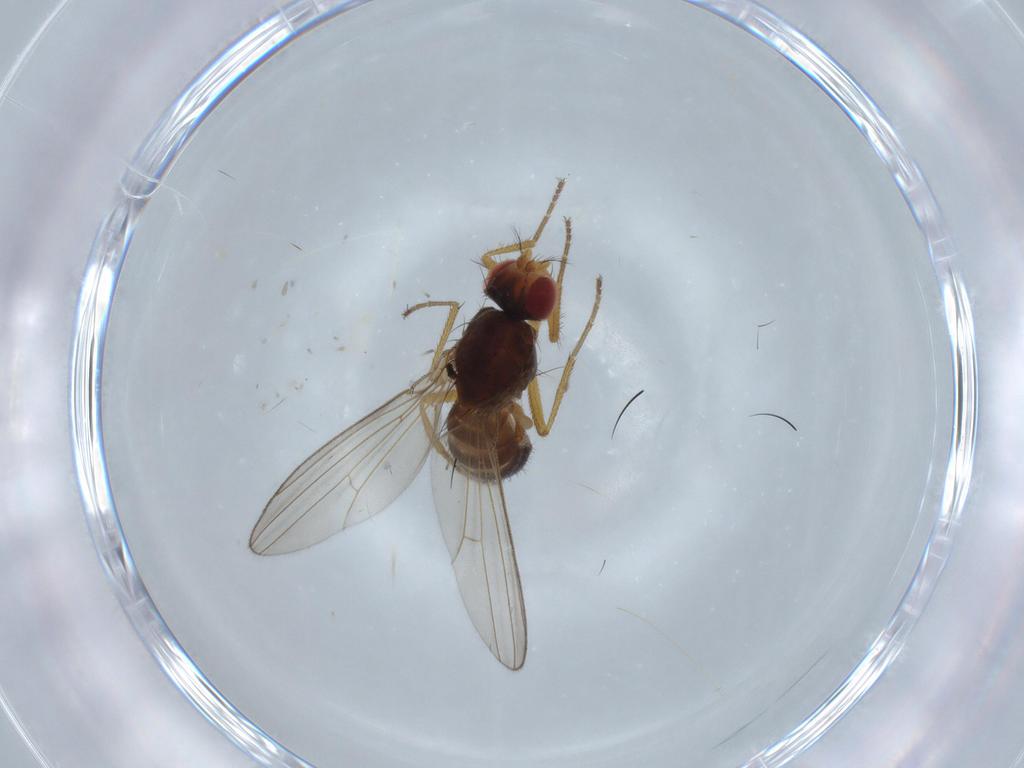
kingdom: Animalia
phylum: Arthropoda
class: Insecta
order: Diptera
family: Drosophilidae
